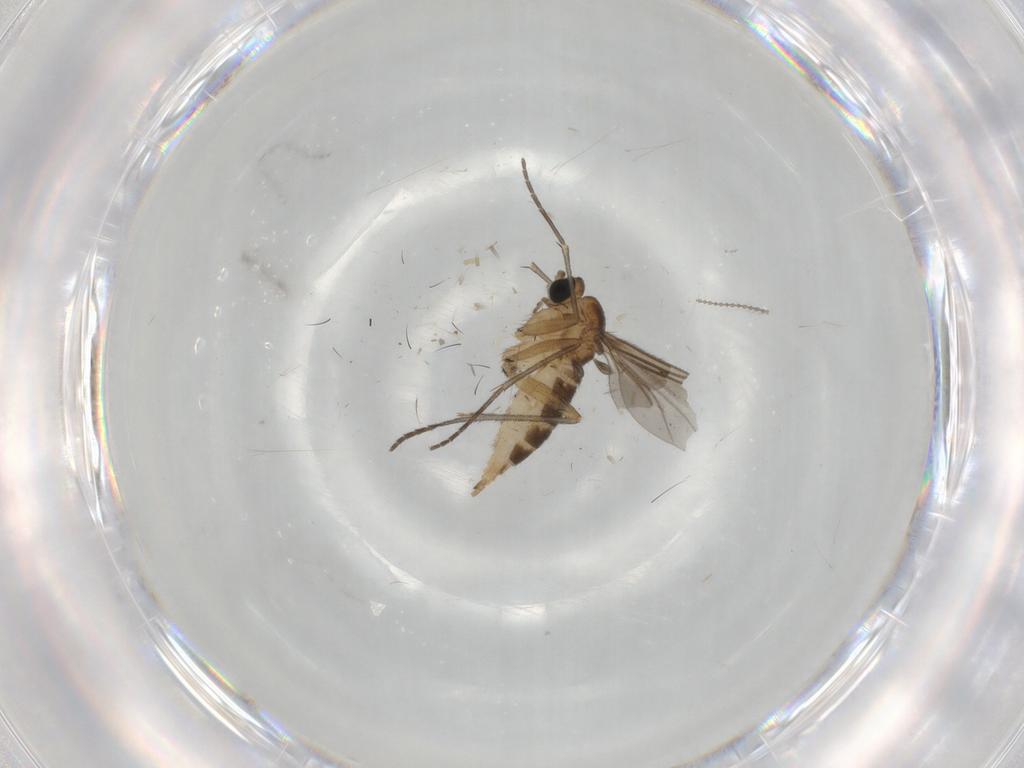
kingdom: Animalia
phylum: Arthropoda
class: Insecta
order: Diptera
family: Sciaridae
